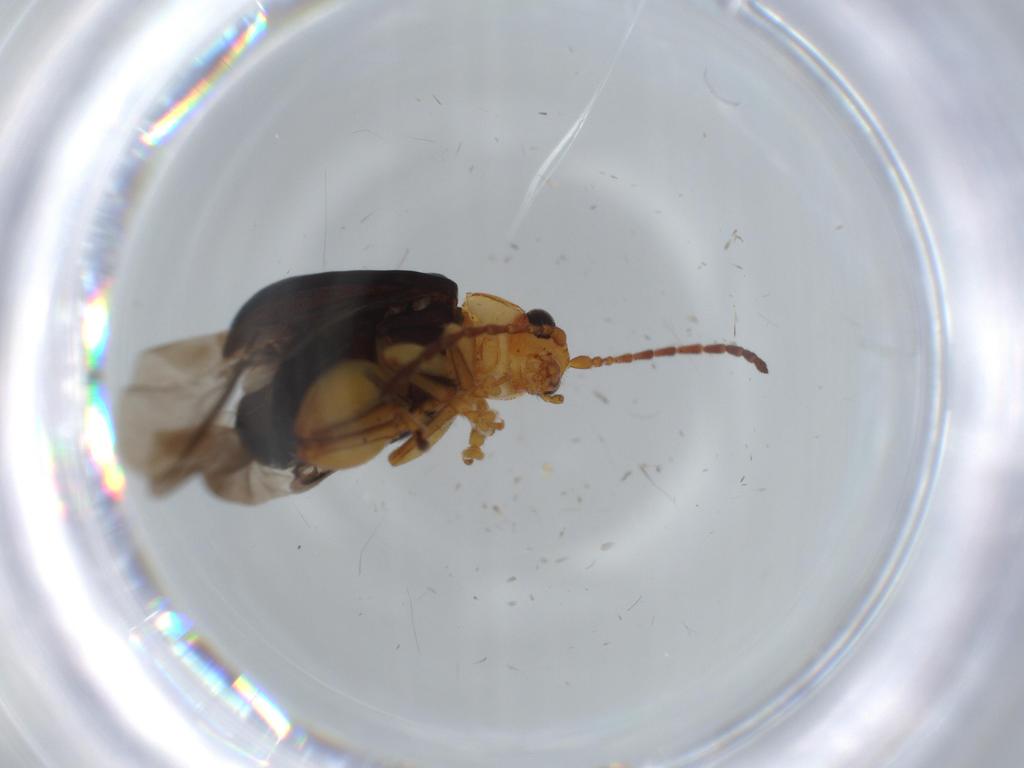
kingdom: Animalia
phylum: Arthropoda
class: Insecta
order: Coleoptera
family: Chrysomelidae
